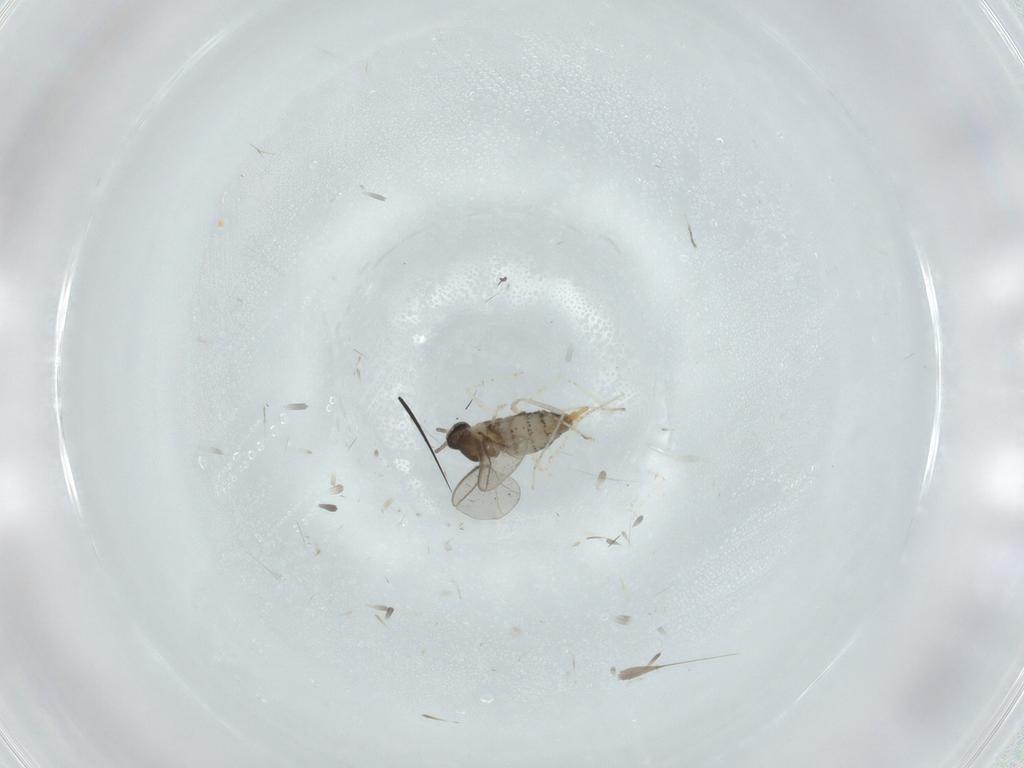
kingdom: Animalia
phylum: Arthropoda
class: Insecta
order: Diptera
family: Cecidomyiidae
